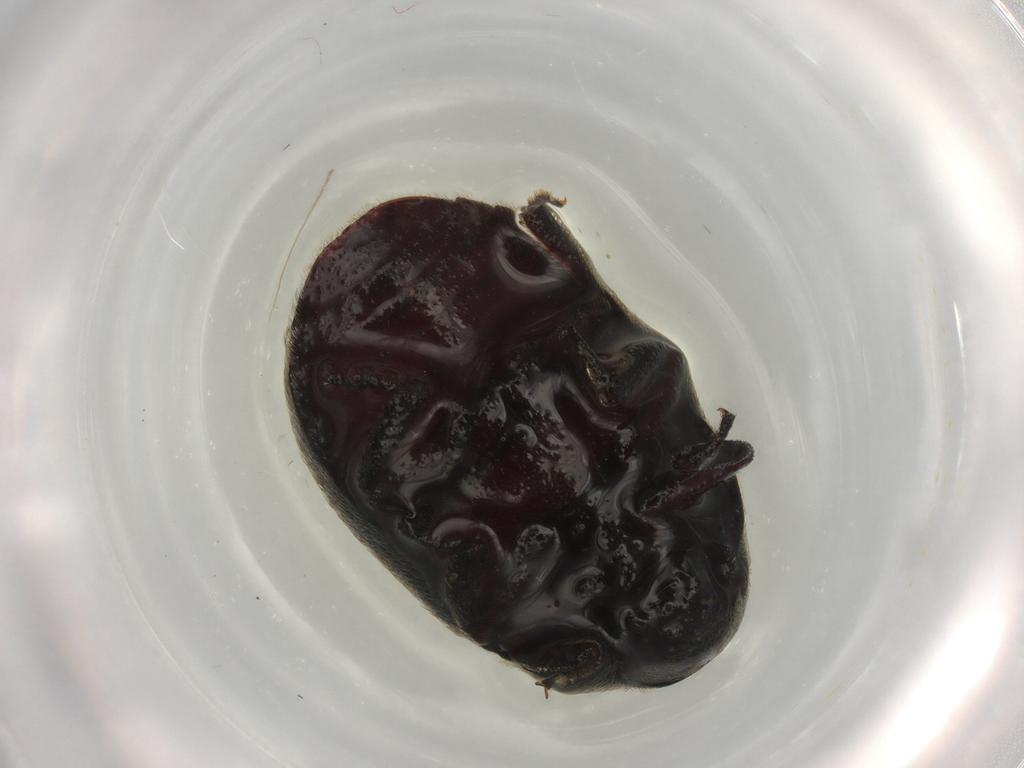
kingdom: Animalia
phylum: Arthropoda
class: Insecta
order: Coleoptera
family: Byrrhidae
